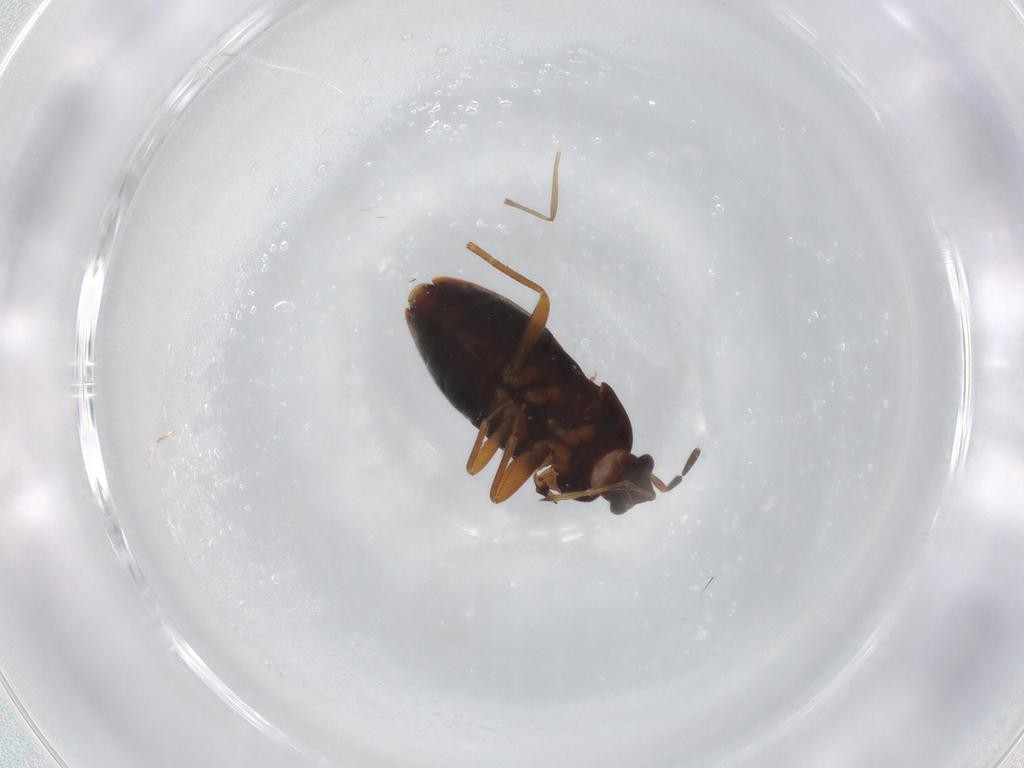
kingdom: Animalia
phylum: Arthropoda
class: Insecta
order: Hemiptera
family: Rhyparochromidae
